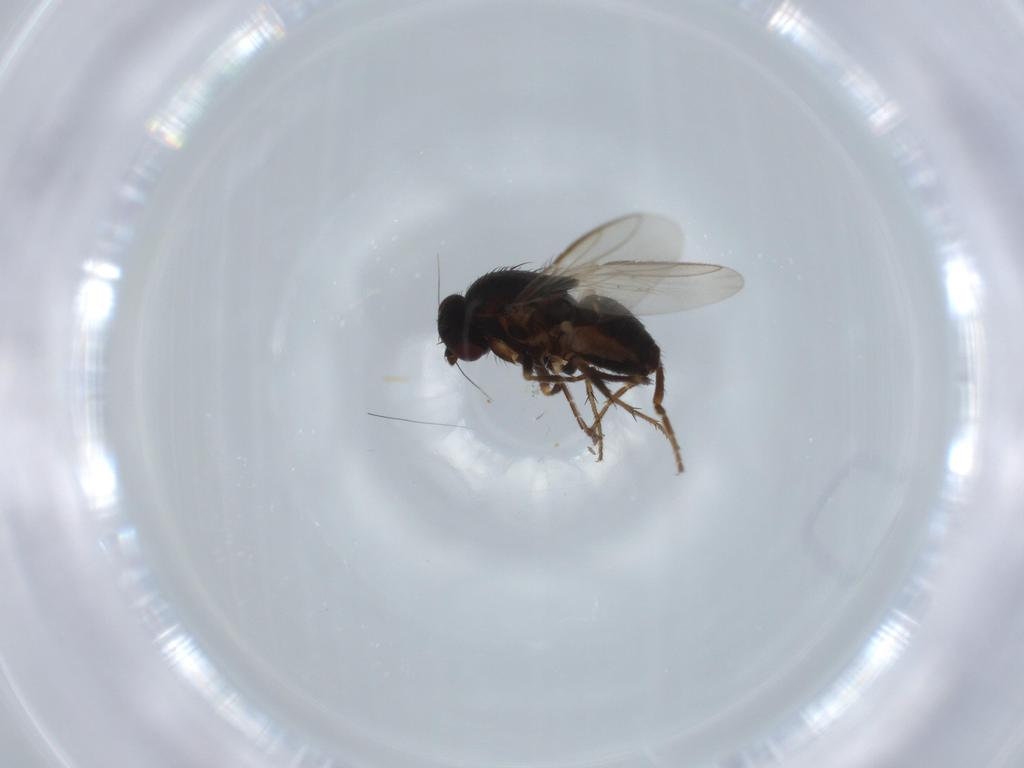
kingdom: Animalia
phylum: Arthropoda
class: Insecta
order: Diptera
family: Sphaeroceridae
